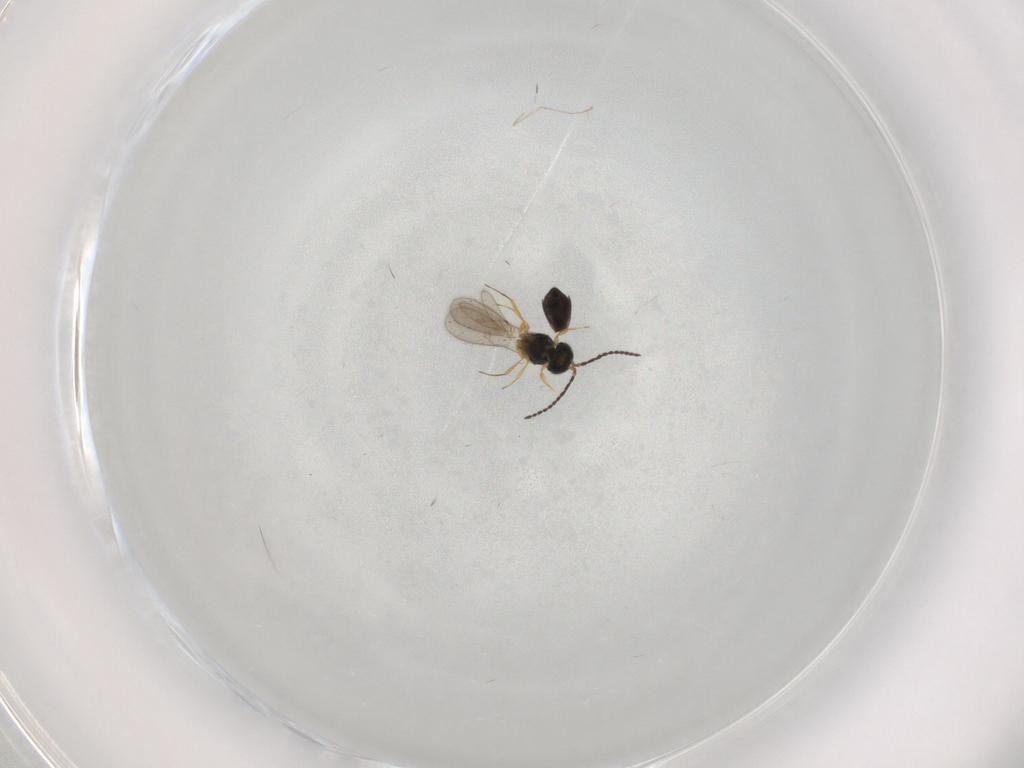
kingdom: Animalia
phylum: Arthropoda
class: Insecta
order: Hymenoptera
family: Scelionidae
